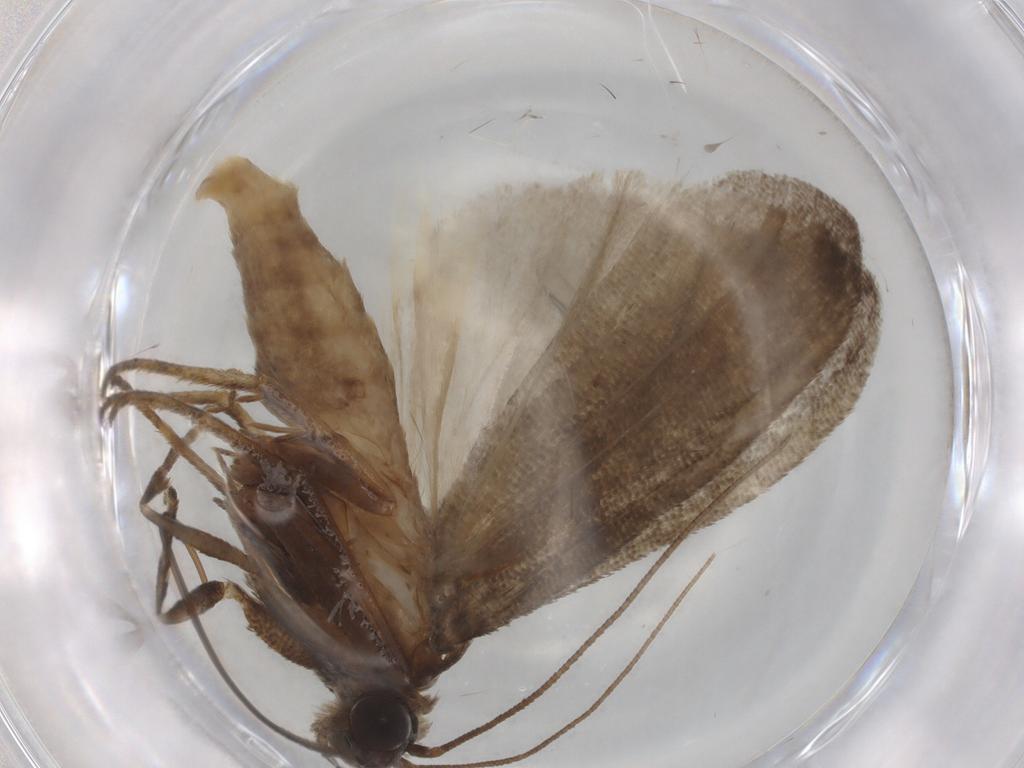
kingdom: Animalia
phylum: Arthropoda
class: Insecta
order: Lepidoptera
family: Pyralidae
